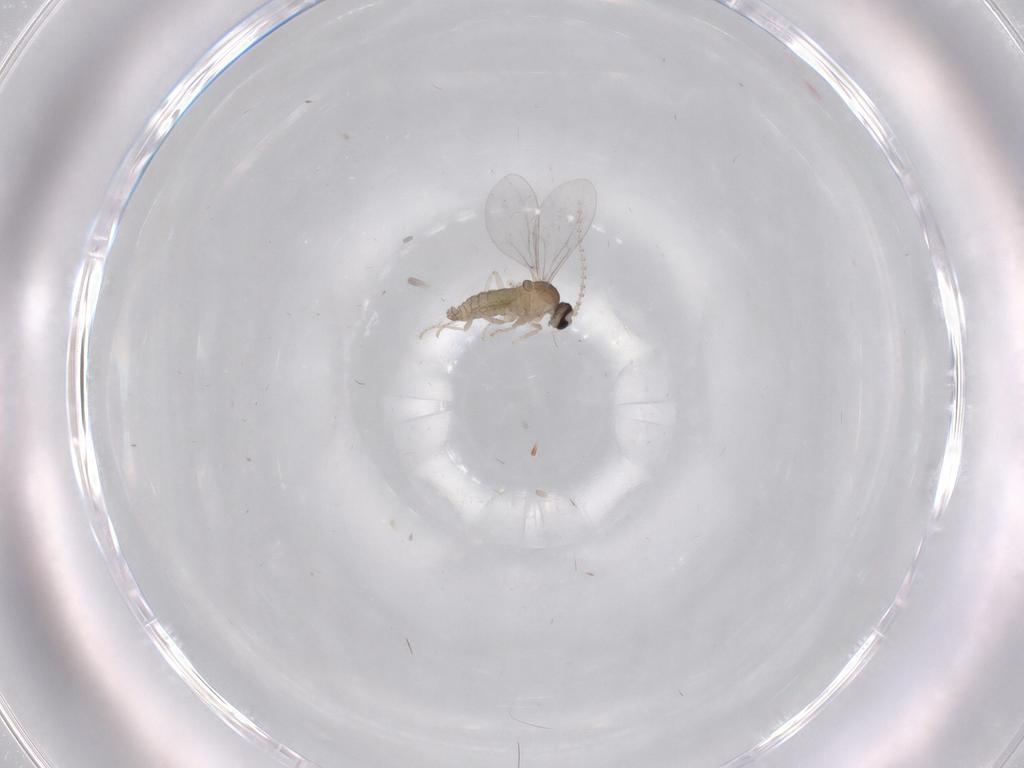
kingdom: Animalia
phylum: Arthropoda
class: Insecta
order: Diptera
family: Cecidomyiidae
